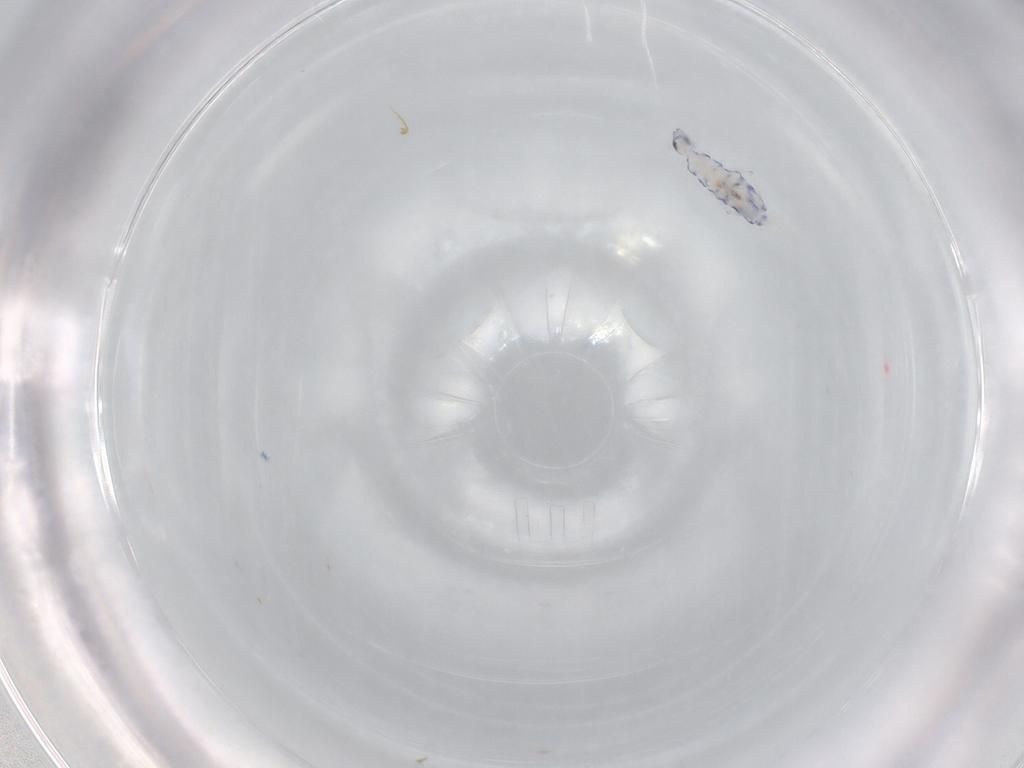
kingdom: Animalia
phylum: Arthropoda
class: Collembola
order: Entomobryomorpha
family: Entomobryidae
